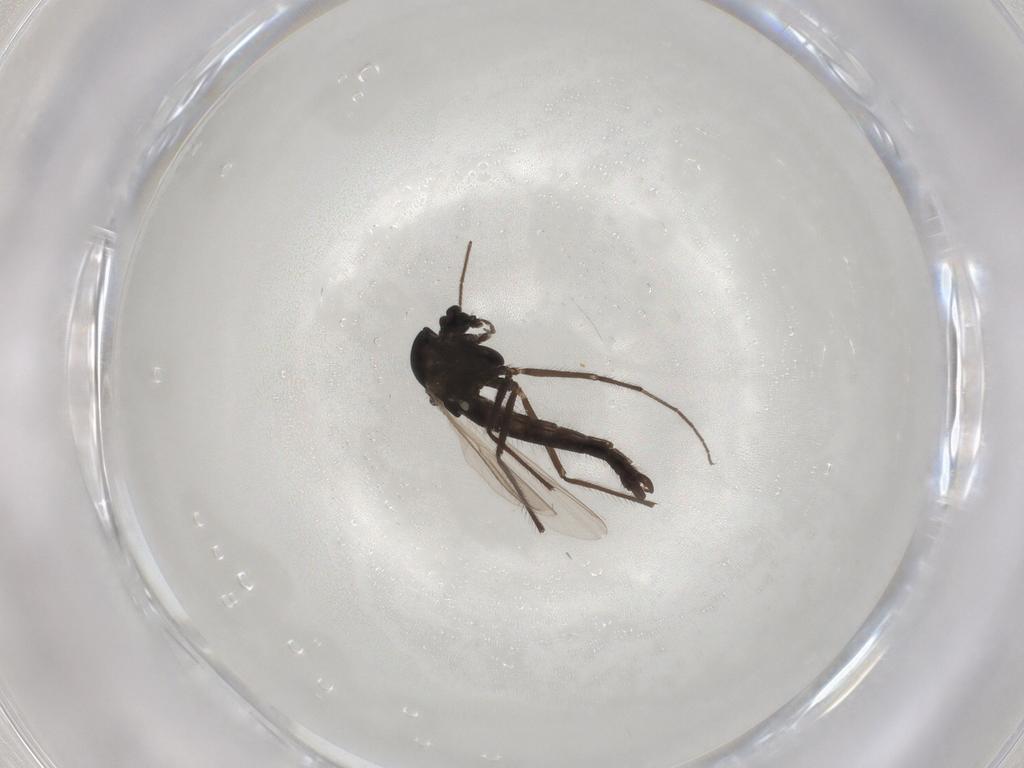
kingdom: Animalia
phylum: Arthropoda
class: Insecta
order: Diptera
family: Chironomidae
